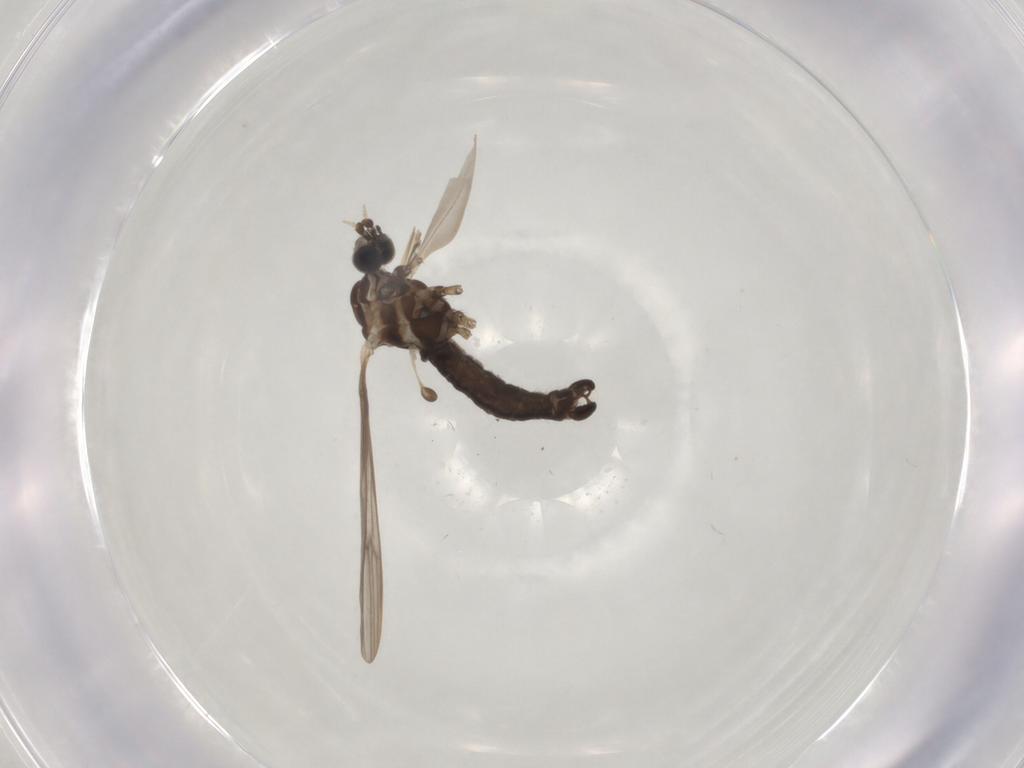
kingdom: Animalia
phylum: Arthropoda
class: Insecta
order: Diptera
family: Limoniidae
